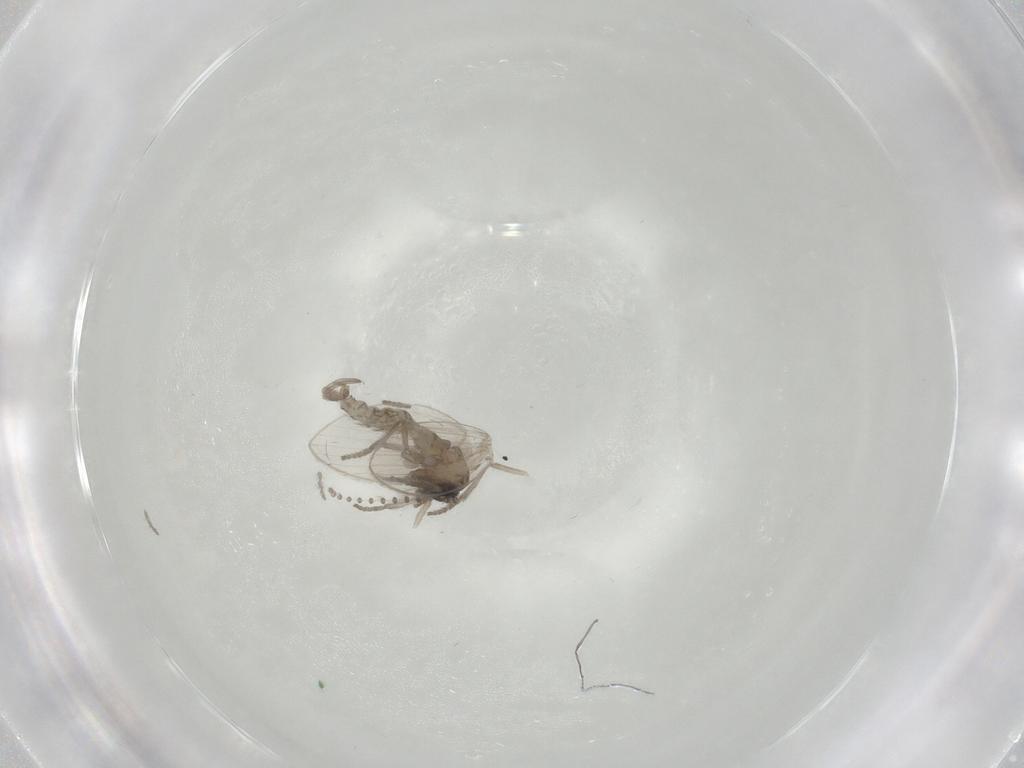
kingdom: Animalia
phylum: Arthropoda
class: Insecta
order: Diptera
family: Psychodidae
